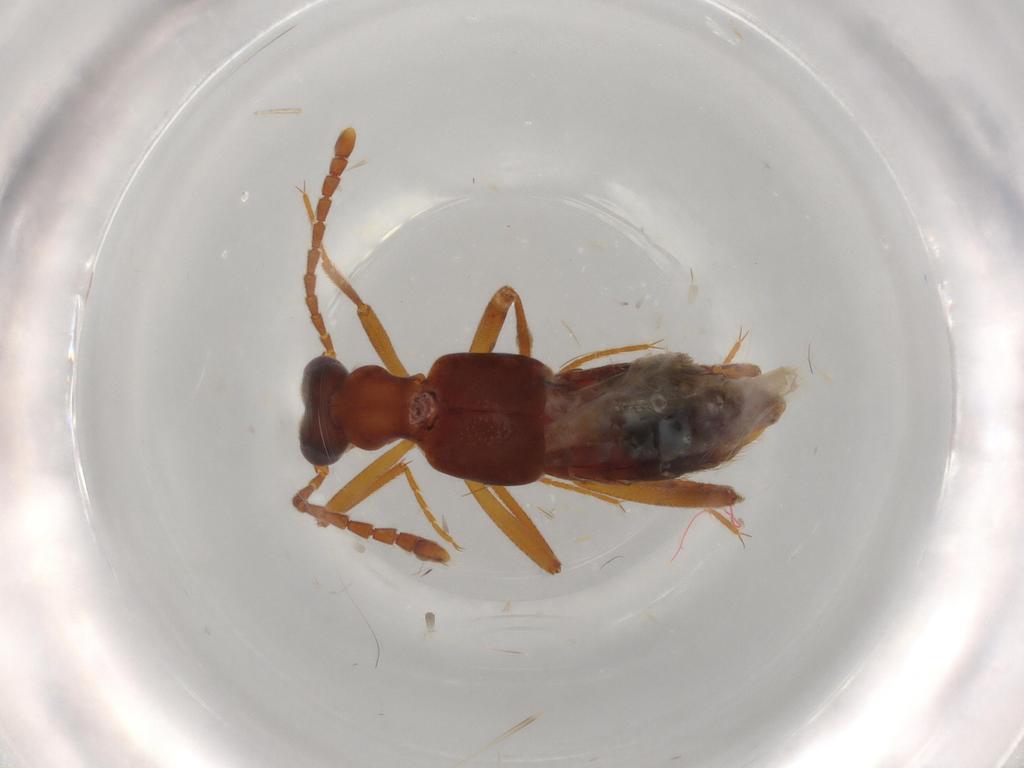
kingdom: Animalia
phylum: Arthropoda
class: Insecta
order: Coleoptera
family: Staphylinidae
